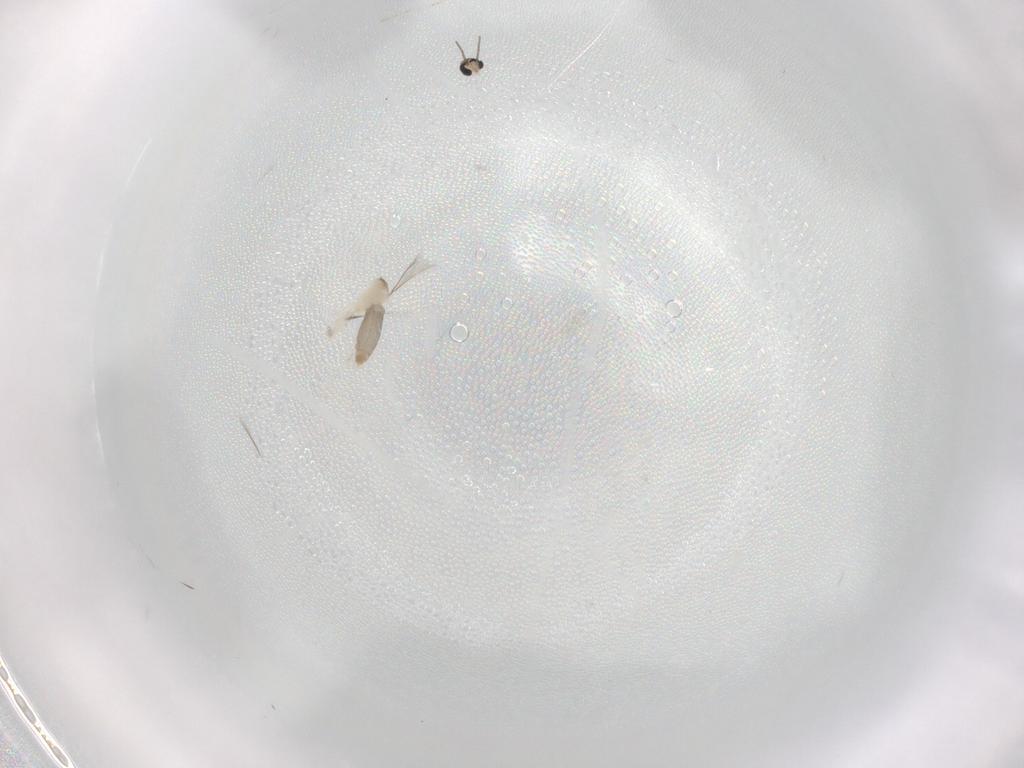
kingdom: Animalia
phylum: Arthropoda
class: Insecta
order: Diptera
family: Cecidomyiidae
